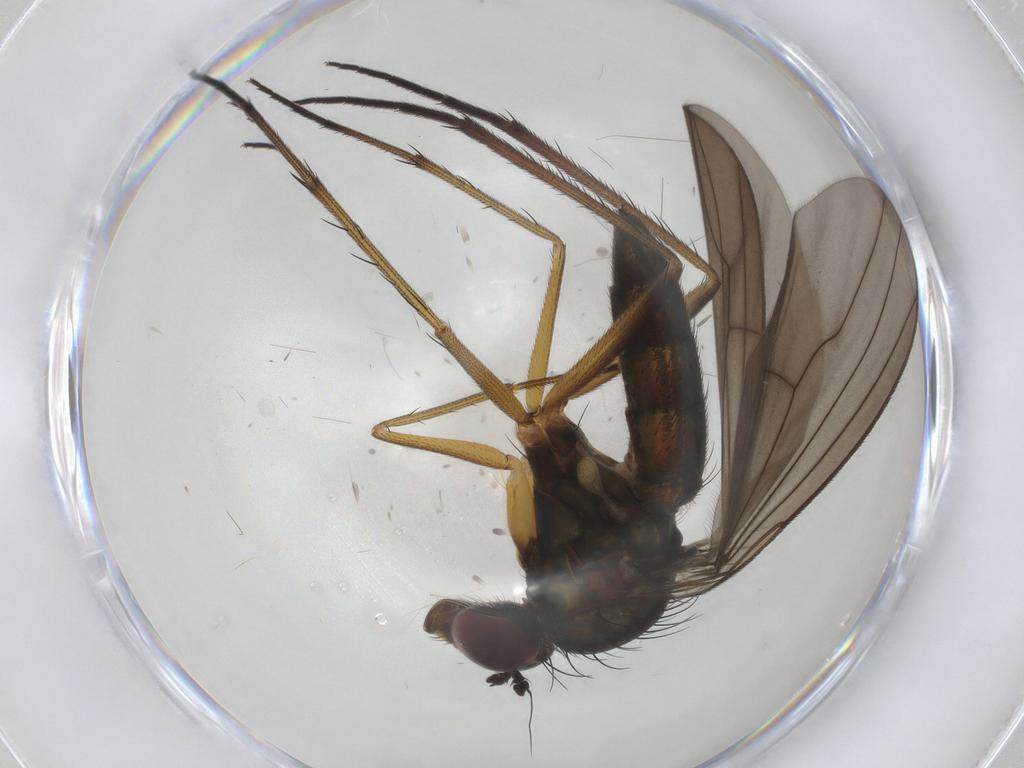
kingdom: Animalia
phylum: Arthropoda
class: Insecta
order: Diptera
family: Dolichopodidae
